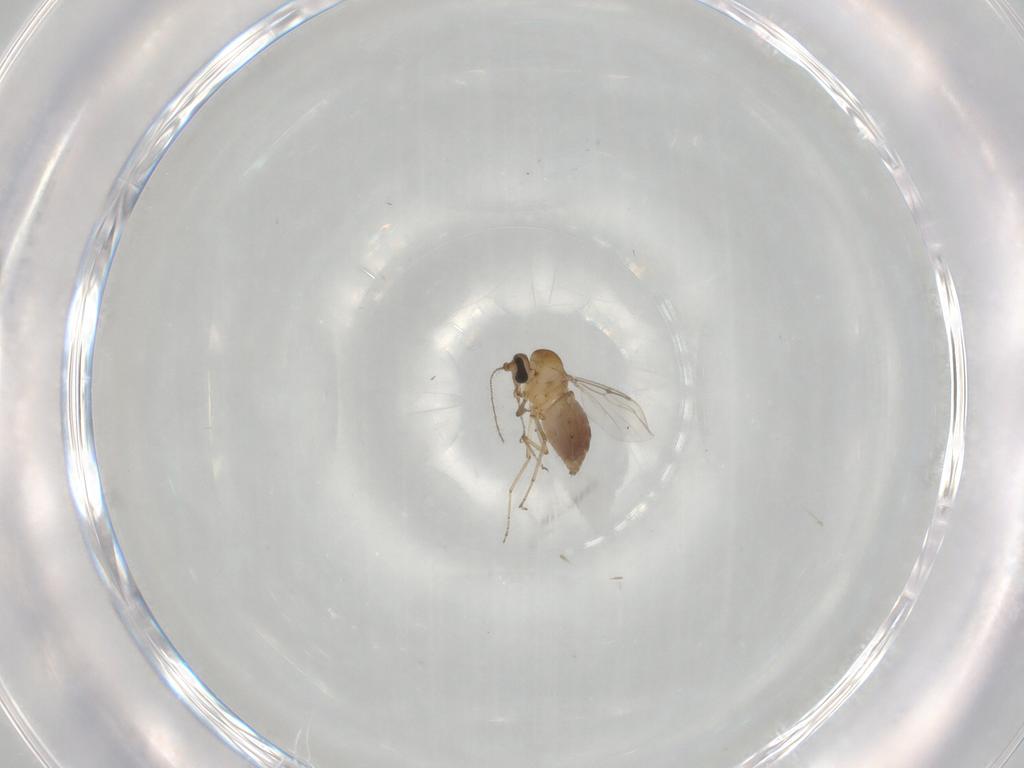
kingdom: Animalia
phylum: Arthropoda
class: Insecta
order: Diptera
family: Ceratopogonidae
